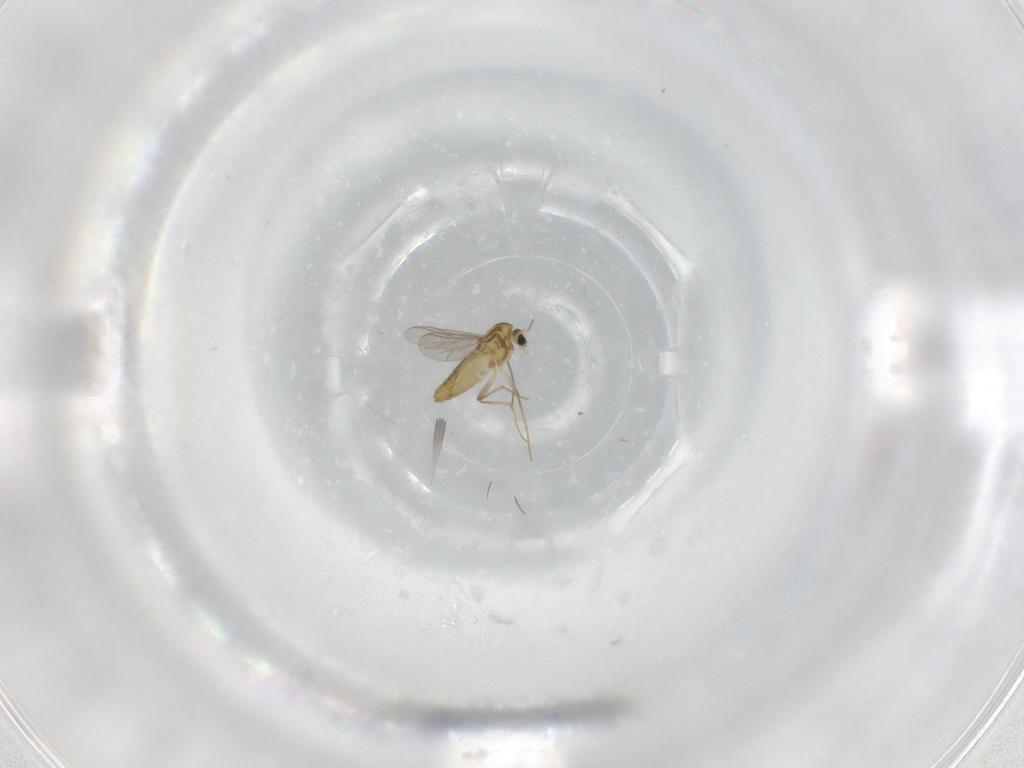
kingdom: Animalia
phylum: Arthropoda
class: Insecta
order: Diptera
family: Chironomidae
